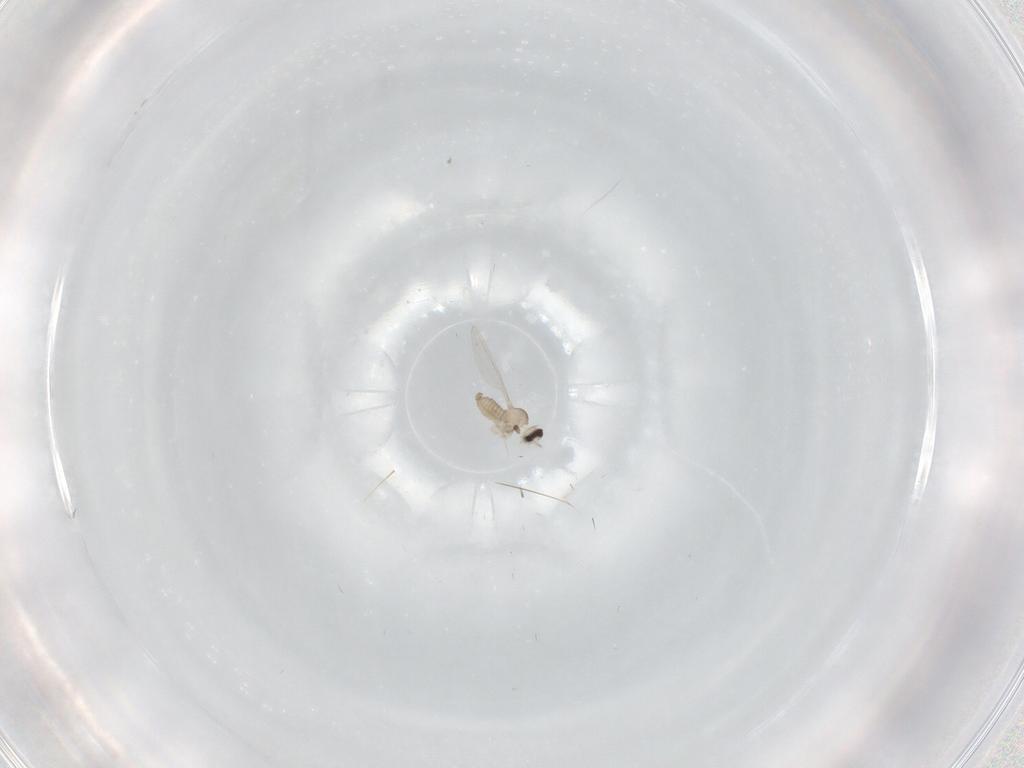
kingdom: Animalia
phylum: Arthropoda
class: Insecta
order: Diptera
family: Cecidomyiidae
